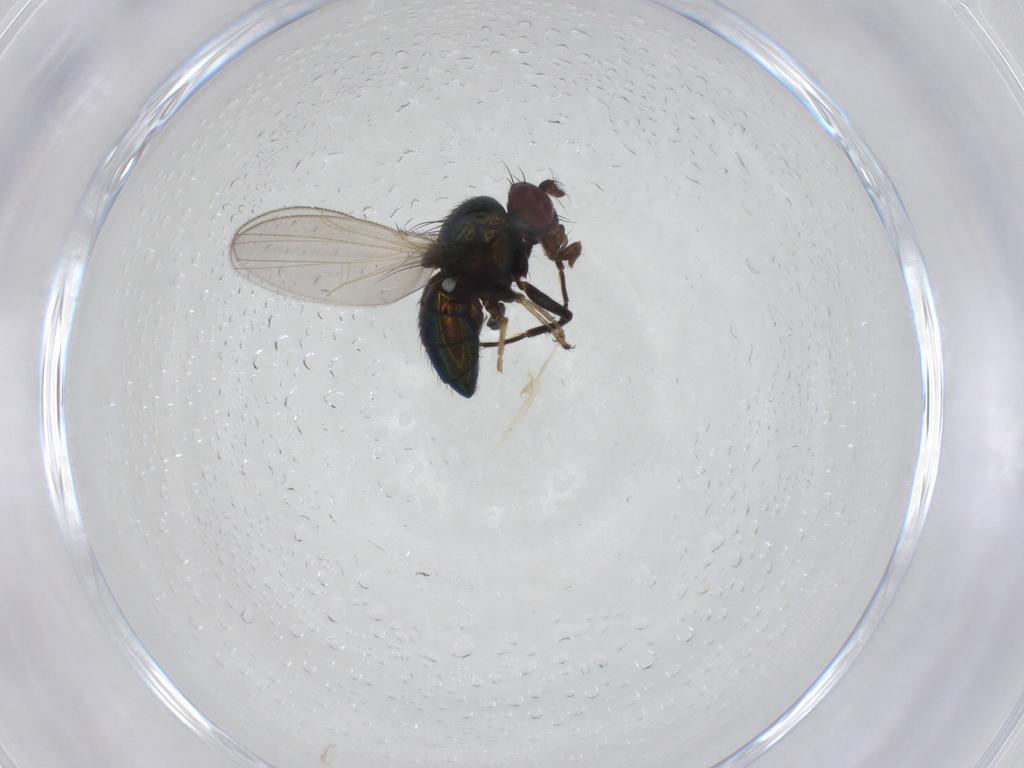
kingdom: Animalia
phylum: Arthropoda
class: Insecta
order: Diptera
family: Ephydridae
